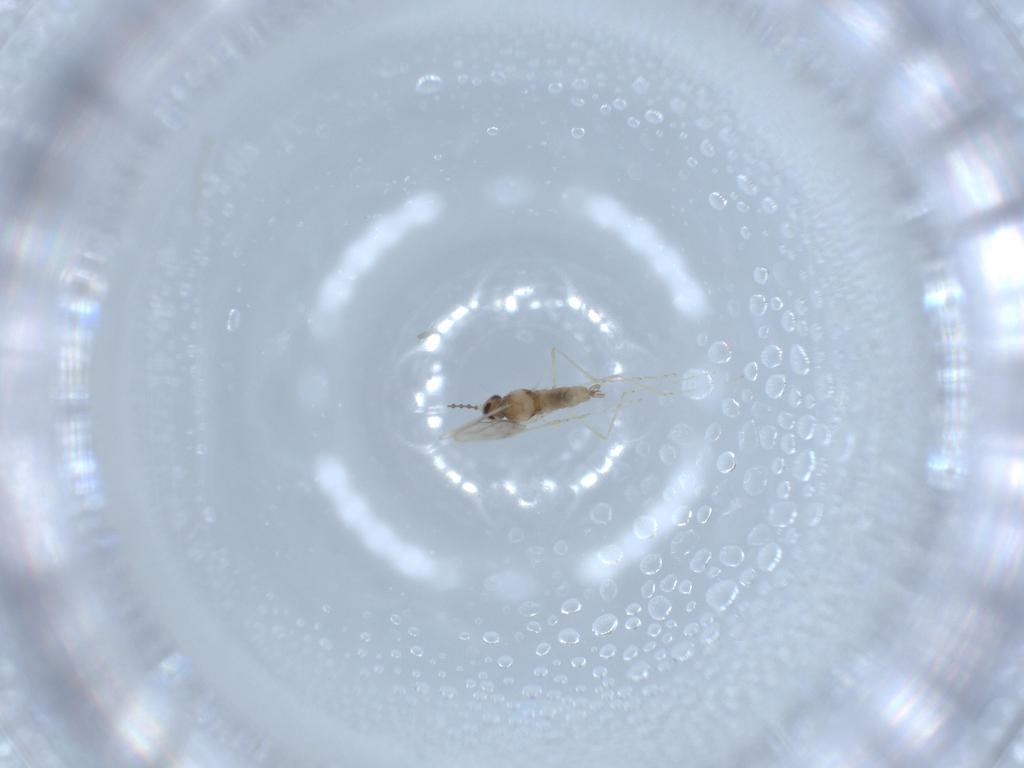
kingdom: Animalia
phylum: Arthropoda
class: Insecta
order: Diptera
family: Cecidomyiidae
